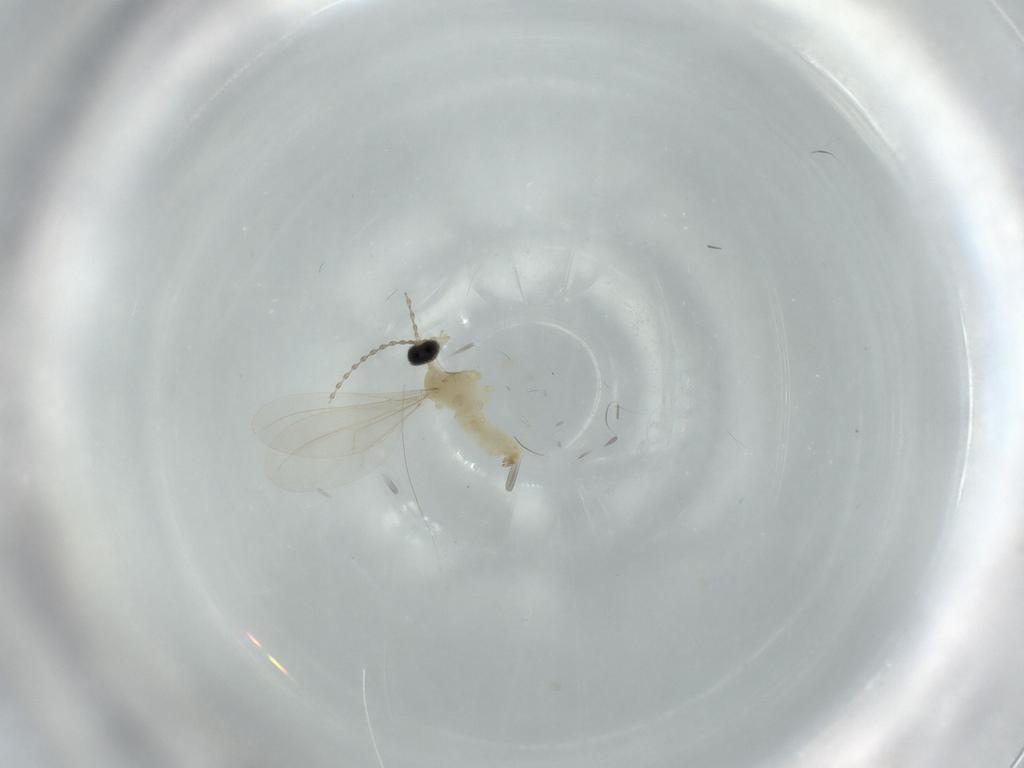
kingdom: Animalia
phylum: Arthropoda
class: Insecta
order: Diptera
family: Cecidomyiidae
